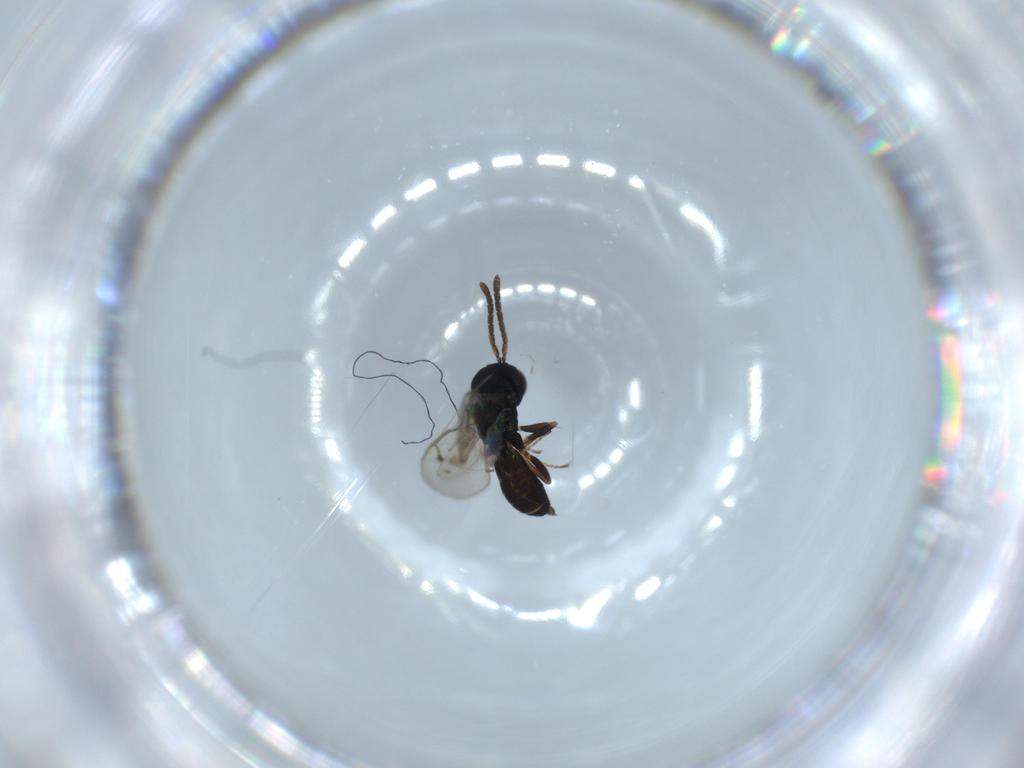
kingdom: Animalia
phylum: Arthropoda
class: Insecta
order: Hymenoptera
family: Pteromalidae
